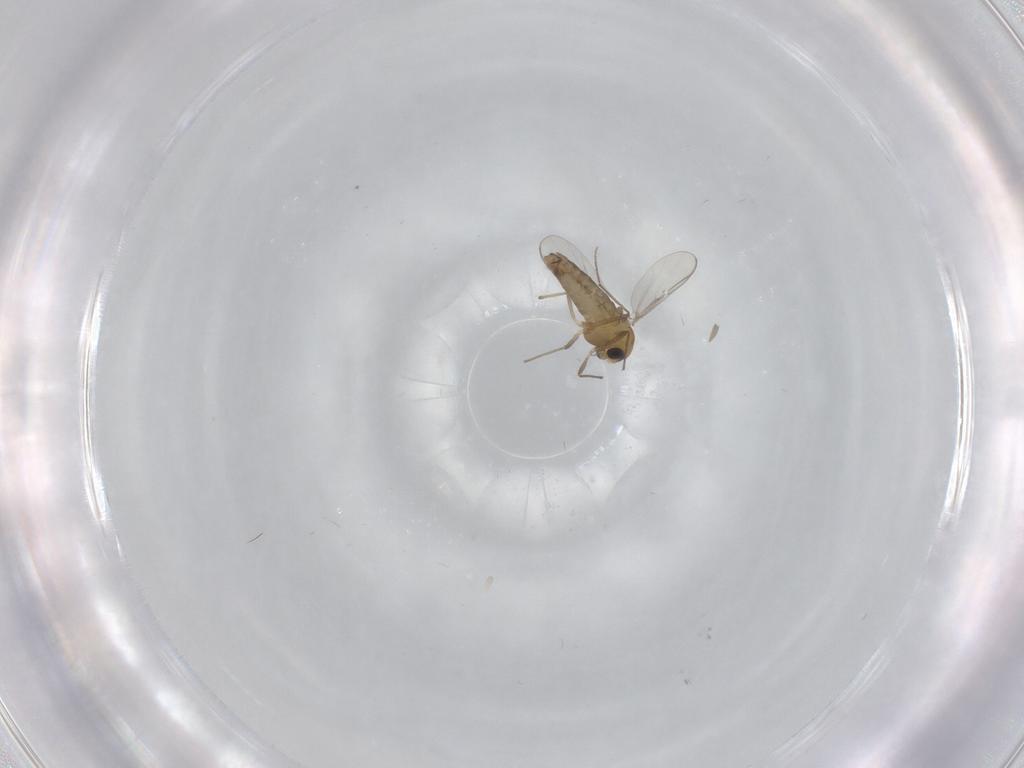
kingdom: Animalia
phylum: Arthropoda
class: Insecta
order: Diptera
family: Chironomidae
